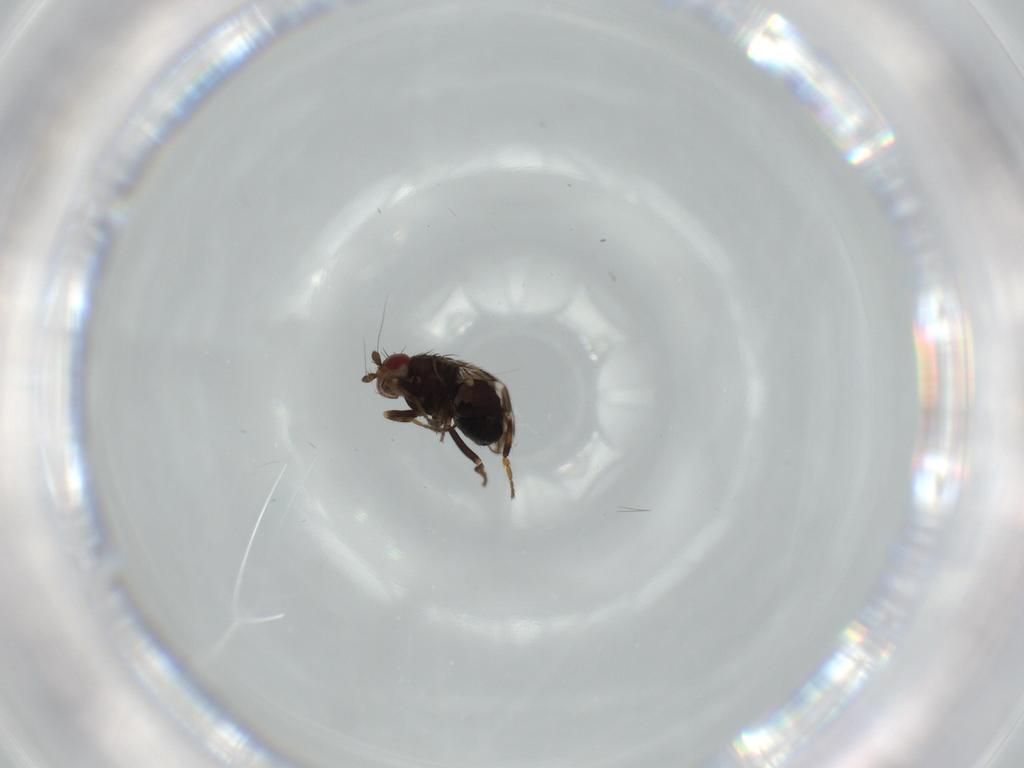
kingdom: Animalia
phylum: Arthropoda
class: Insecta
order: Diptera
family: Sphaeroceridae
